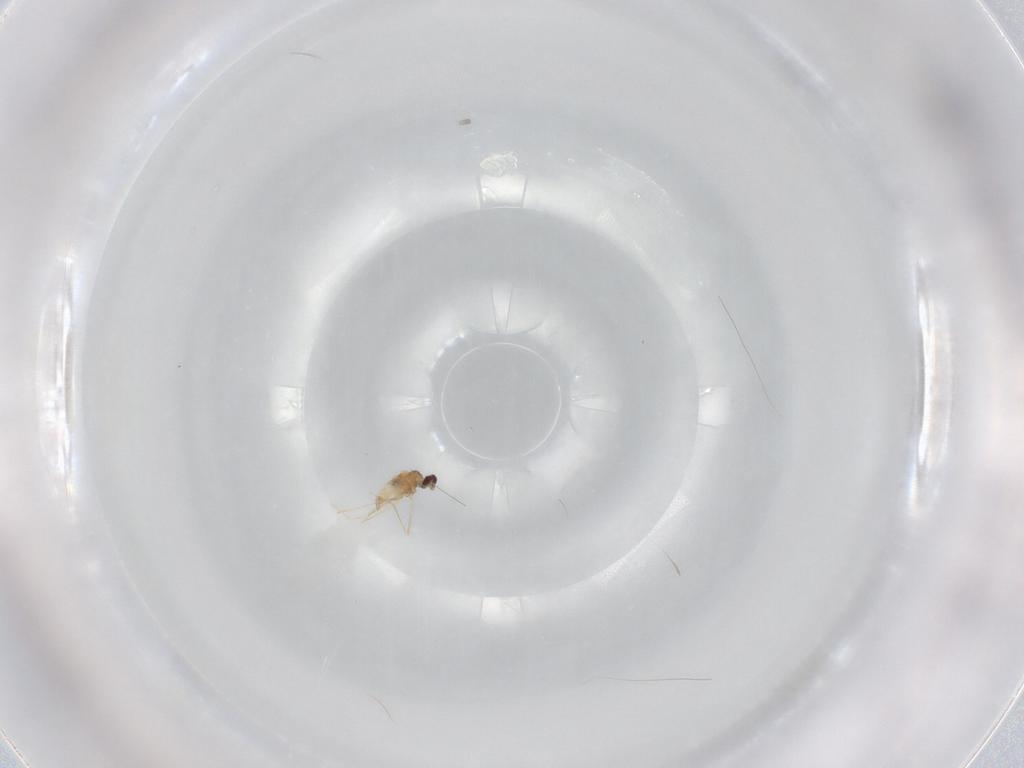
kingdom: Animalia
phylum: Arthropoda
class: Insecta
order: Diptera
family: Cecidomyiidae
